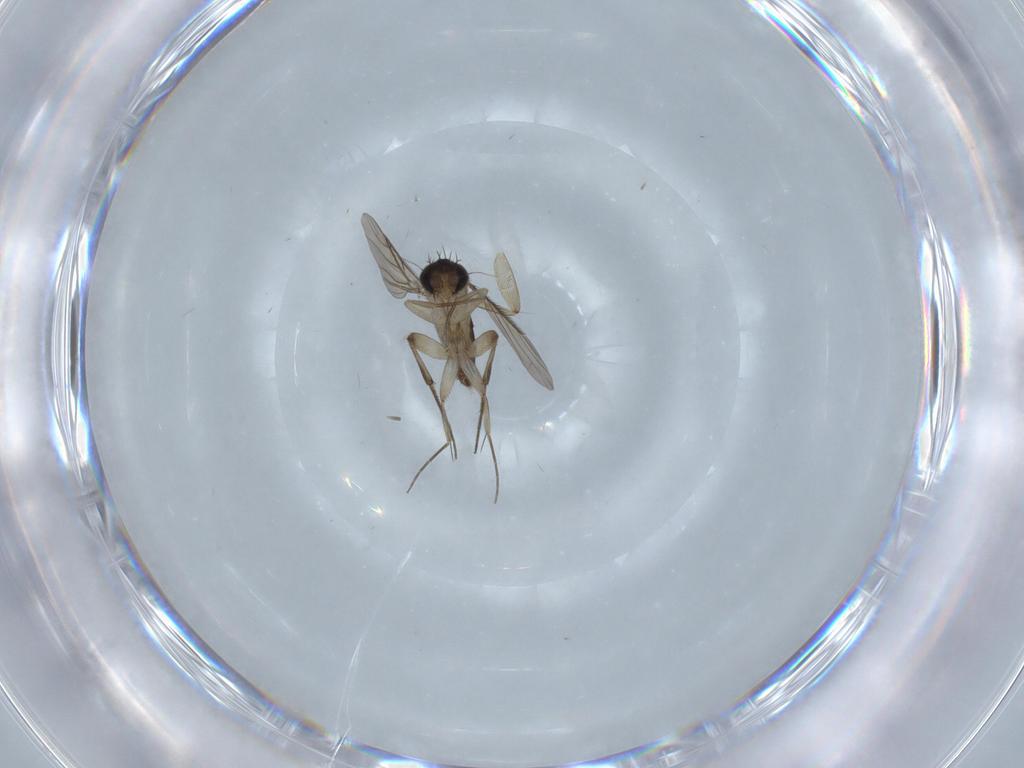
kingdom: Animalia
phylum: Arthropoda
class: Insecta
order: Diptera
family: Phoridae
